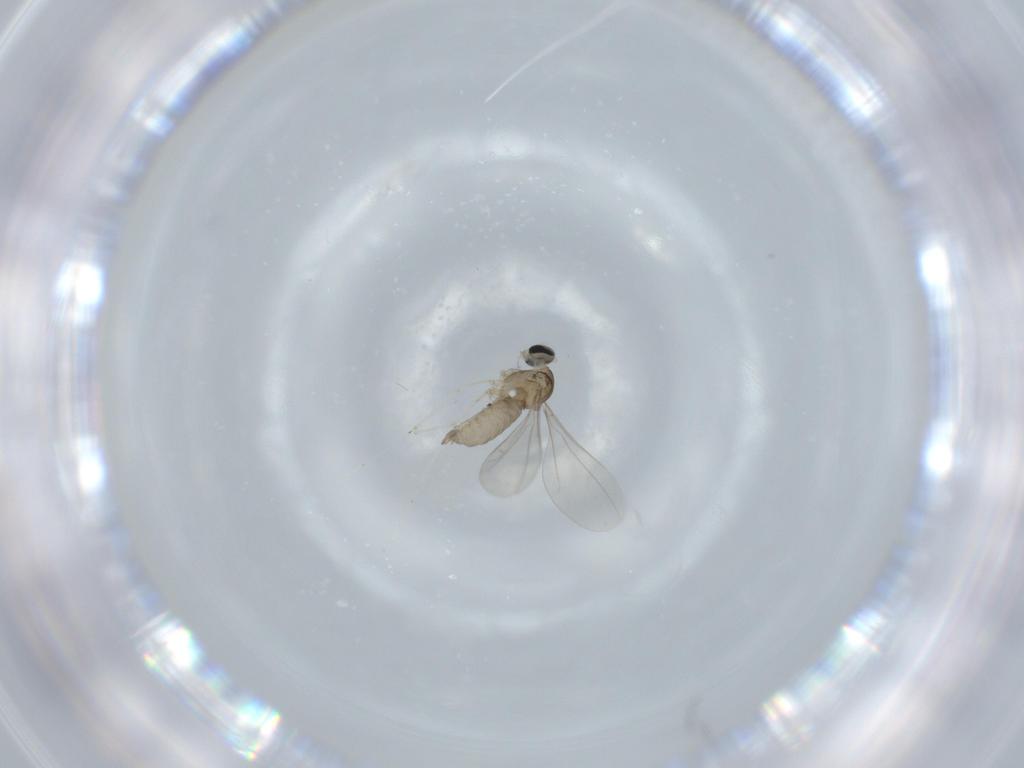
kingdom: Animalia
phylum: Arthropoda
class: Insecta
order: Diptera
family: Cecidomyiidae
